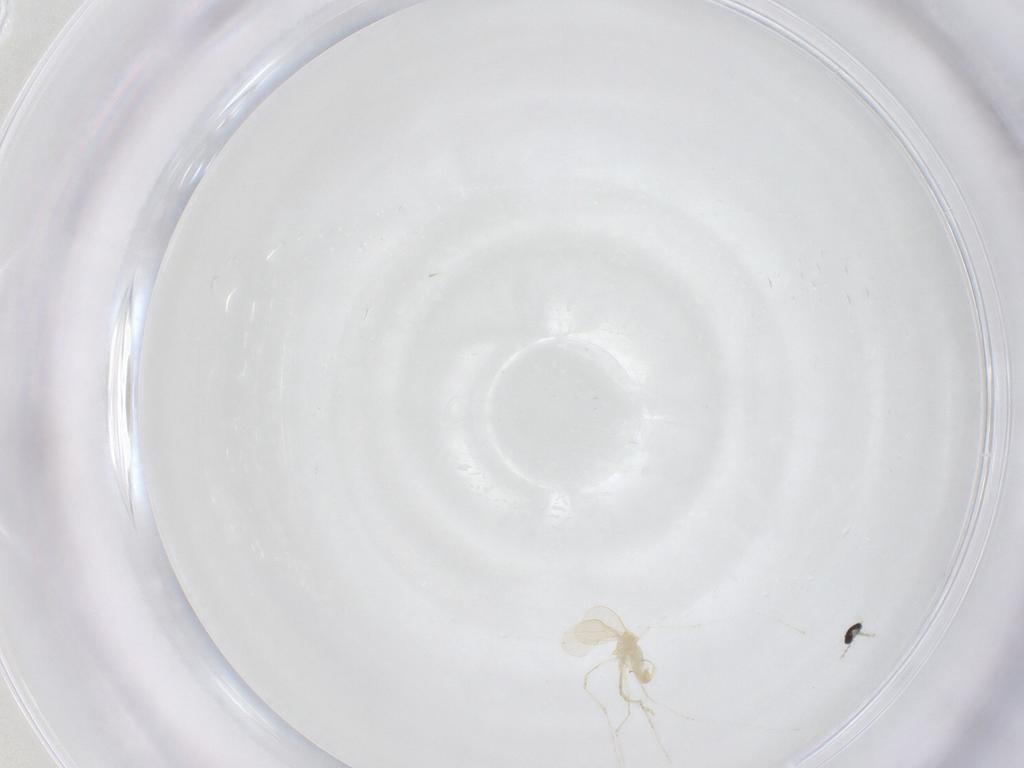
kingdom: Animalia
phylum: Arthropoda
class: Insecta
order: Diptera
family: Cecidomyiidae
